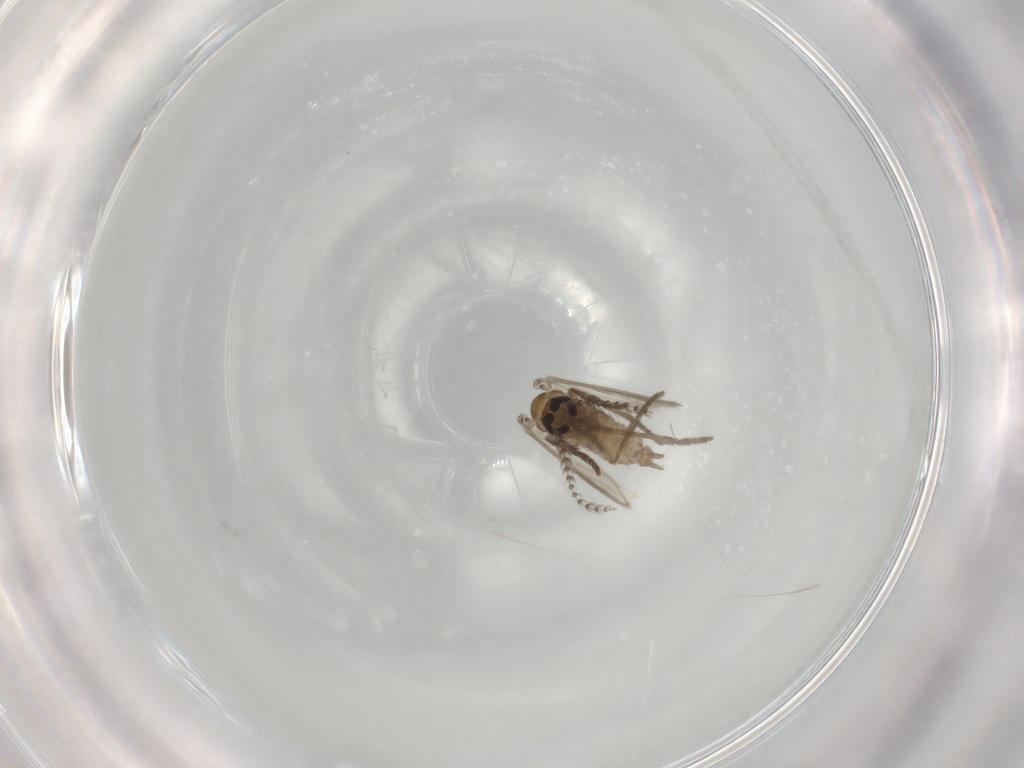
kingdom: Animalia
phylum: Arthropoda
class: Insecta
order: Diptera
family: Psychodidae
